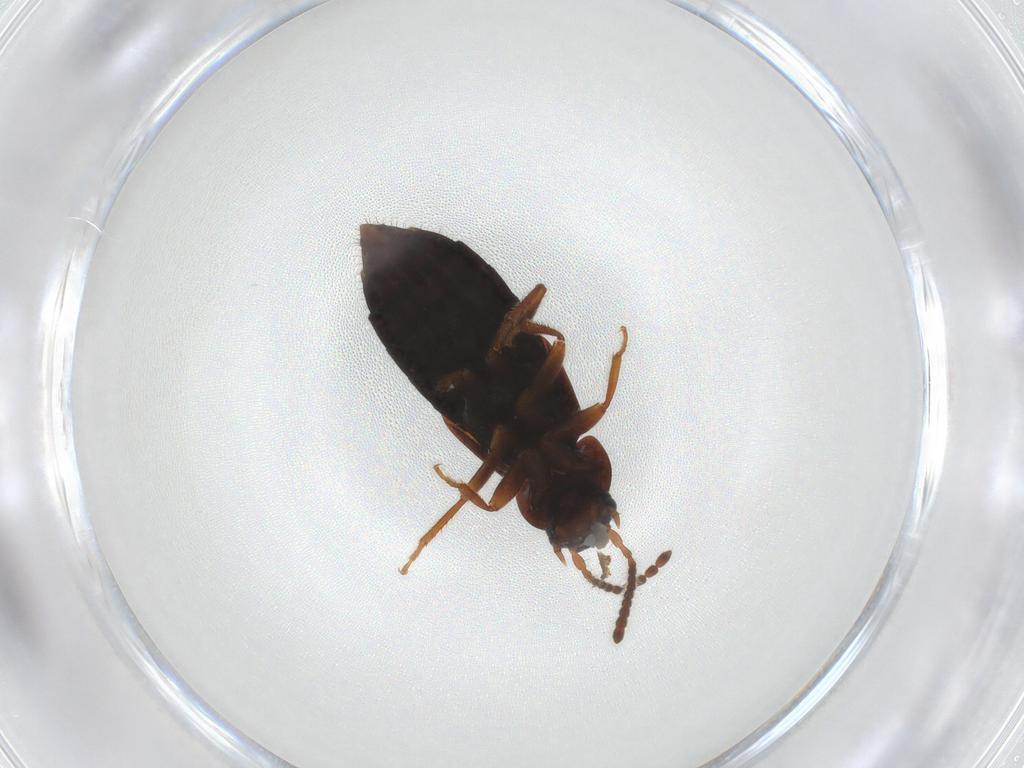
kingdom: Animalia
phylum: Arthropoda
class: Insecta
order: Coleoptera
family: Staphylinidae
